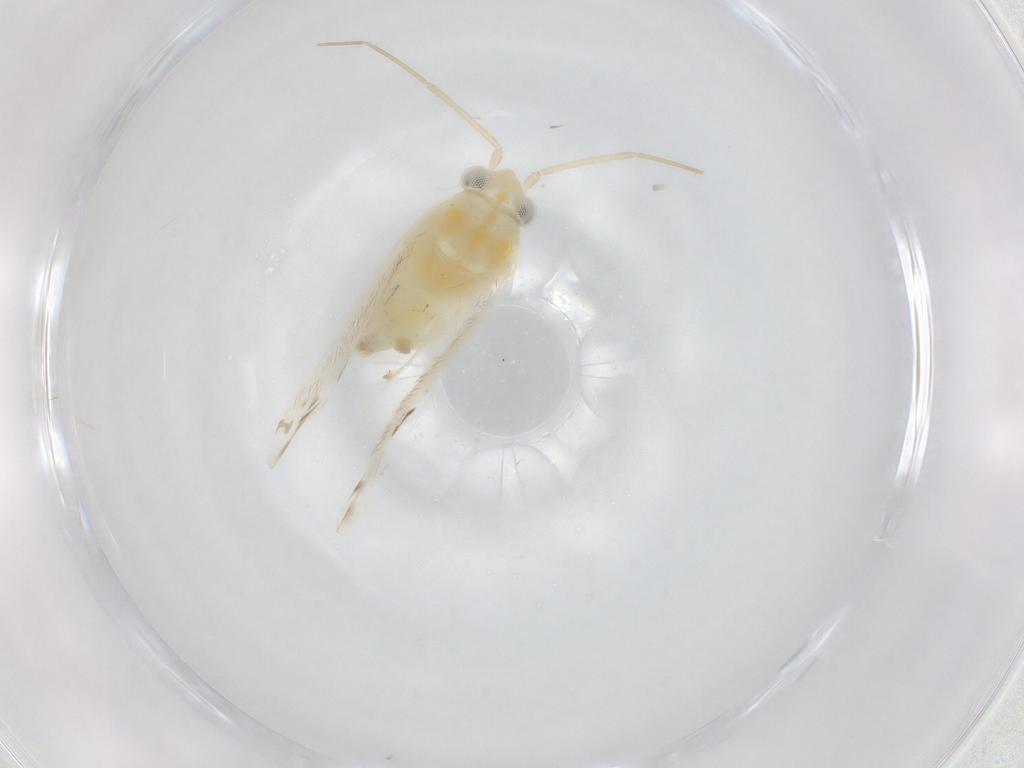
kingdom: Animalia
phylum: Arthropoda
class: Insecta
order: Hemiptera
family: Miridae
